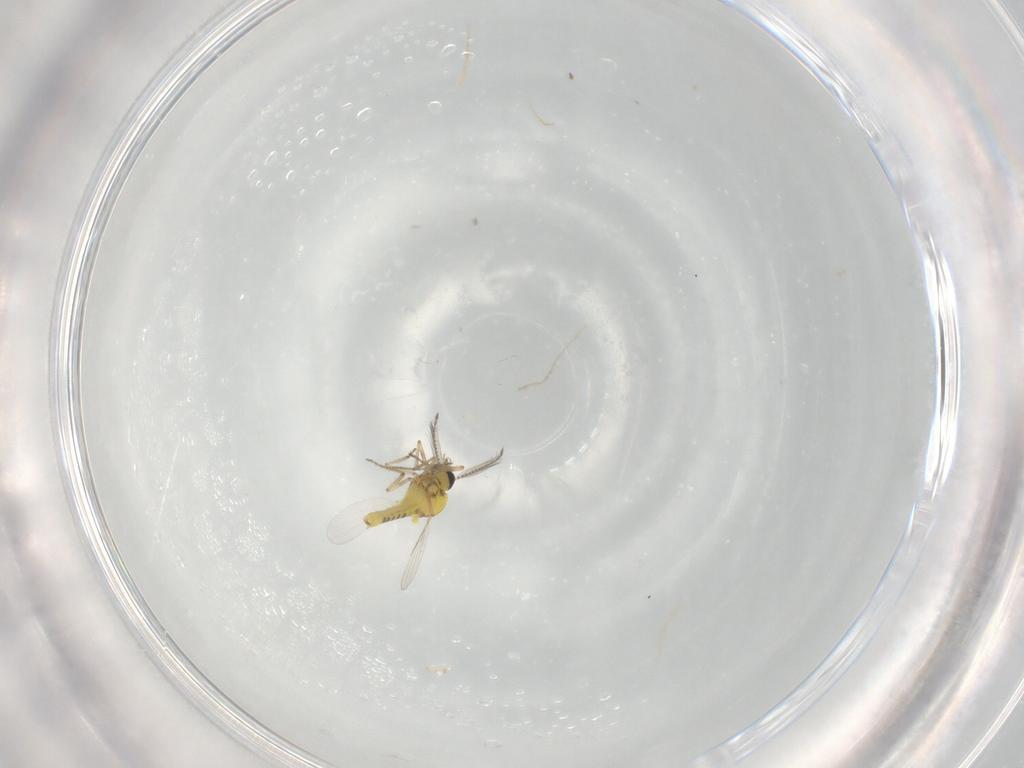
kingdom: Animalia
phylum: Arthropoda
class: Insecta
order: Diptera
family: Ceratopogonidae
